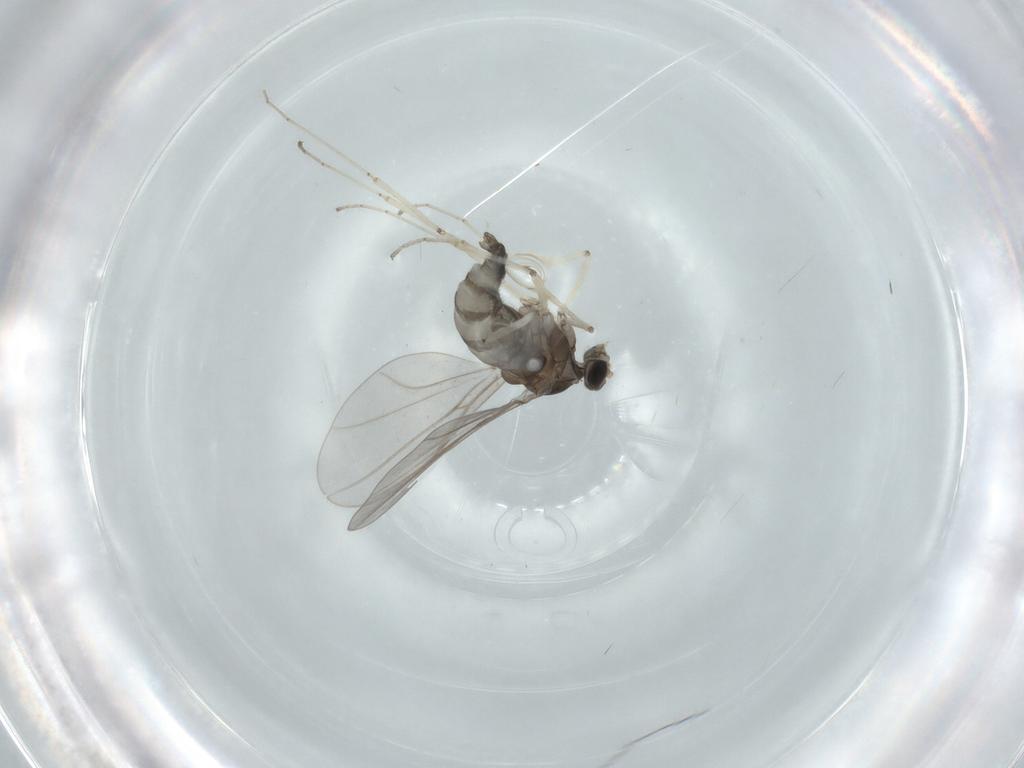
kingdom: Animalia
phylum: Arthropoda
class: Insecta
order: Diptera
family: Cecidomyiidae
